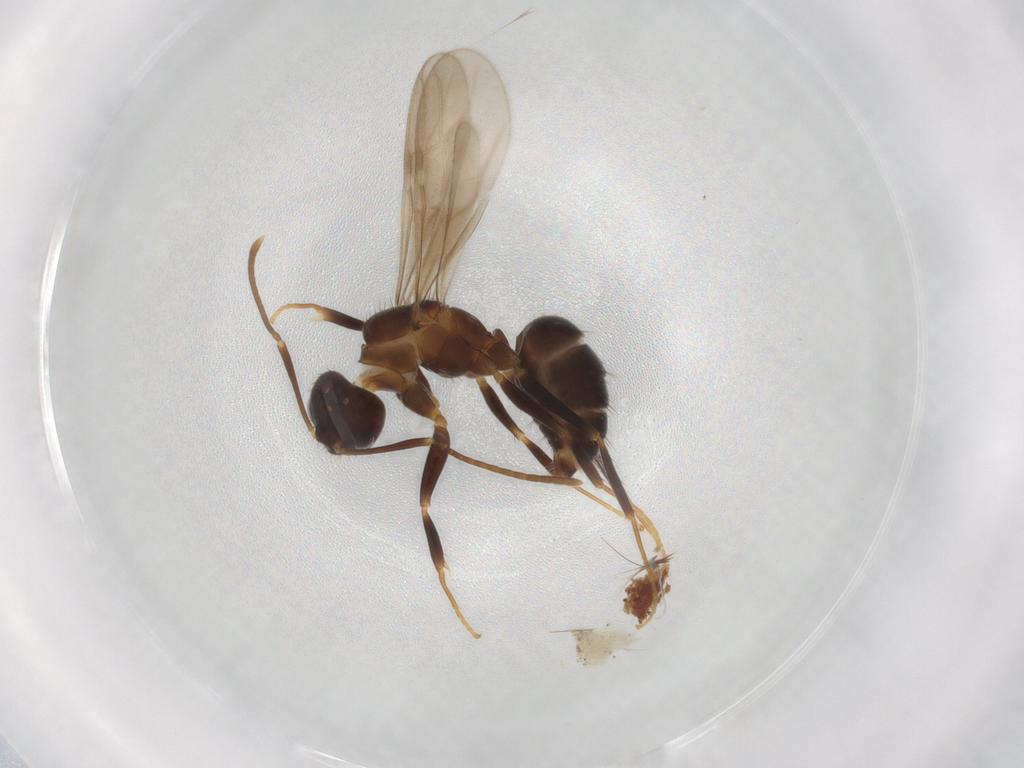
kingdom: Animalia
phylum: Arthropoda
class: Insecta
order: Hymenoptera
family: Formicidae
